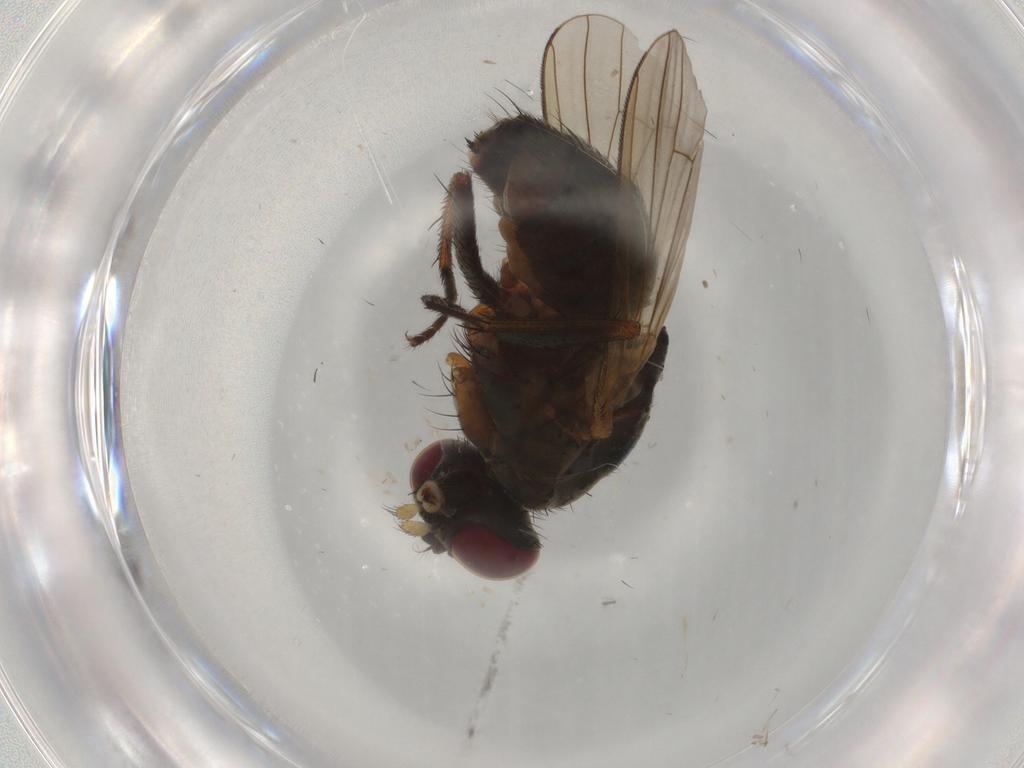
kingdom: Animalia
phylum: Arthropoda
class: Insecta
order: Diptera
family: Muscidae
